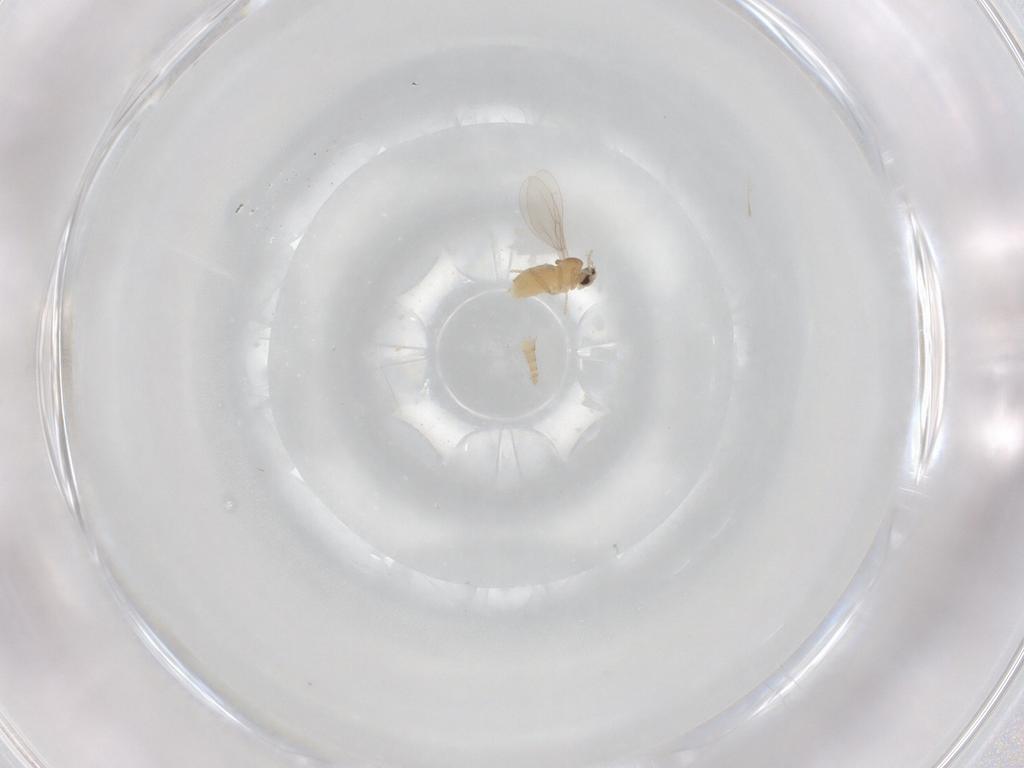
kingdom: Animalia
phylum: Arthropoda
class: Insecta
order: Diptera
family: Cecidomyiidae
